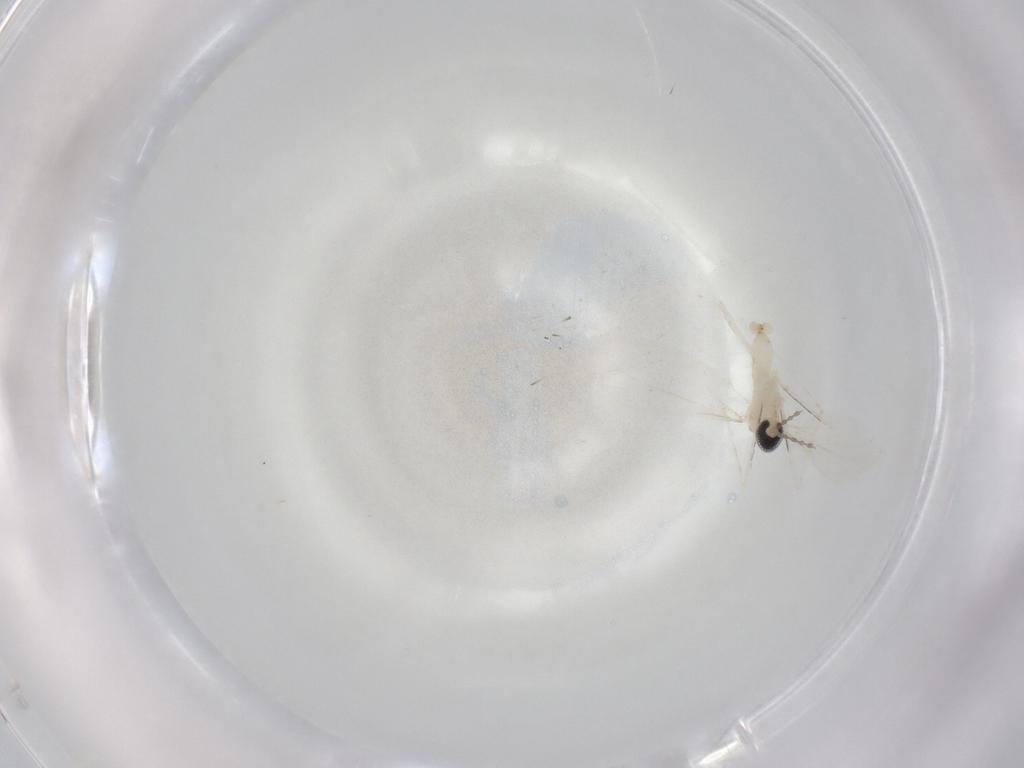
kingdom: Animalia
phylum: Arthropoda
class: Insecta
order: Diptera
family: Cecidomyiidae
